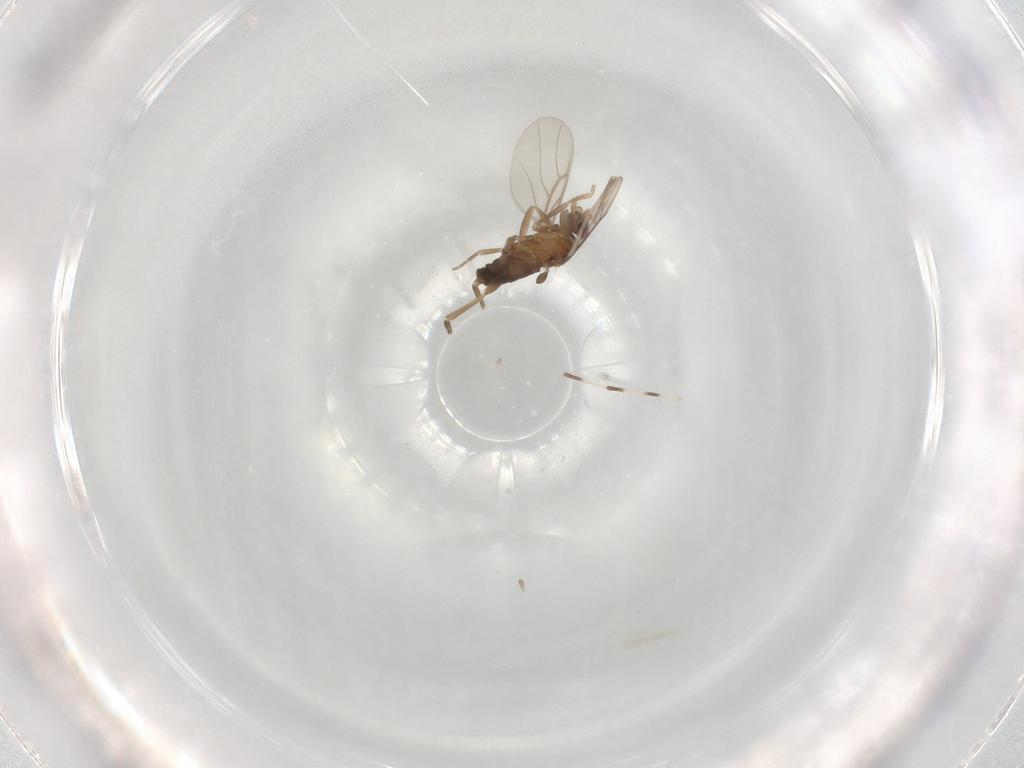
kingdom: Animalia
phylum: Arthropoda
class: Insecta
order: Diptera
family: Phoridae
